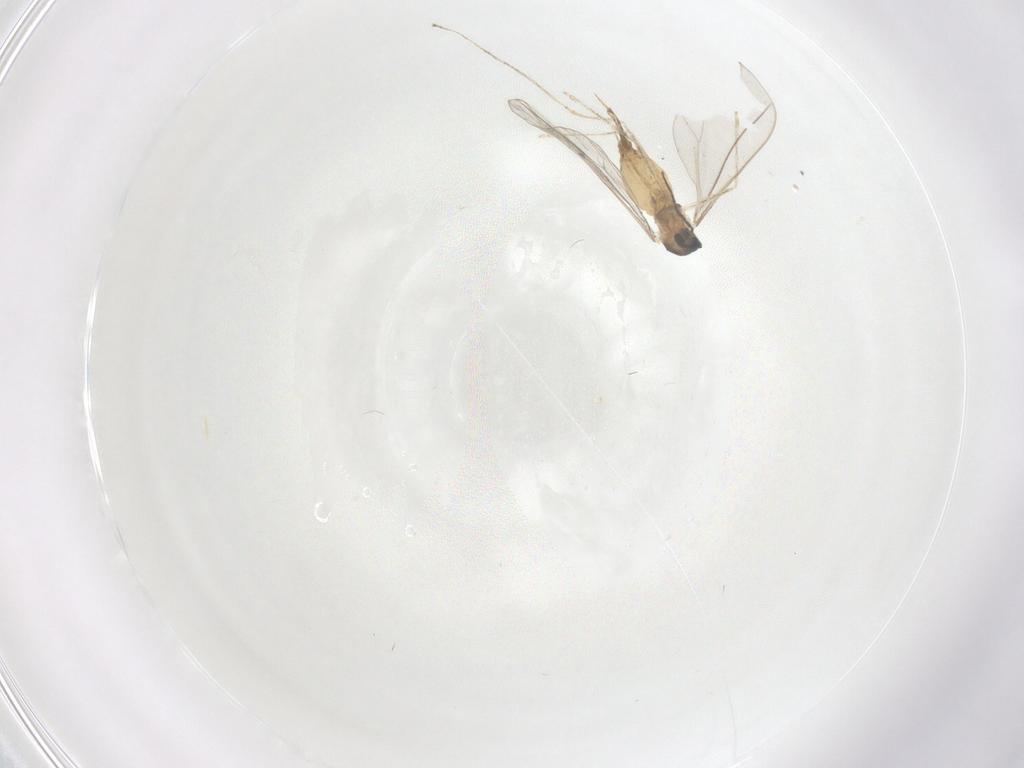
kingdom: Animalia
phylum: Arthropoda
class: Insecta
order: Diptera
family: Cecidomyiidae
